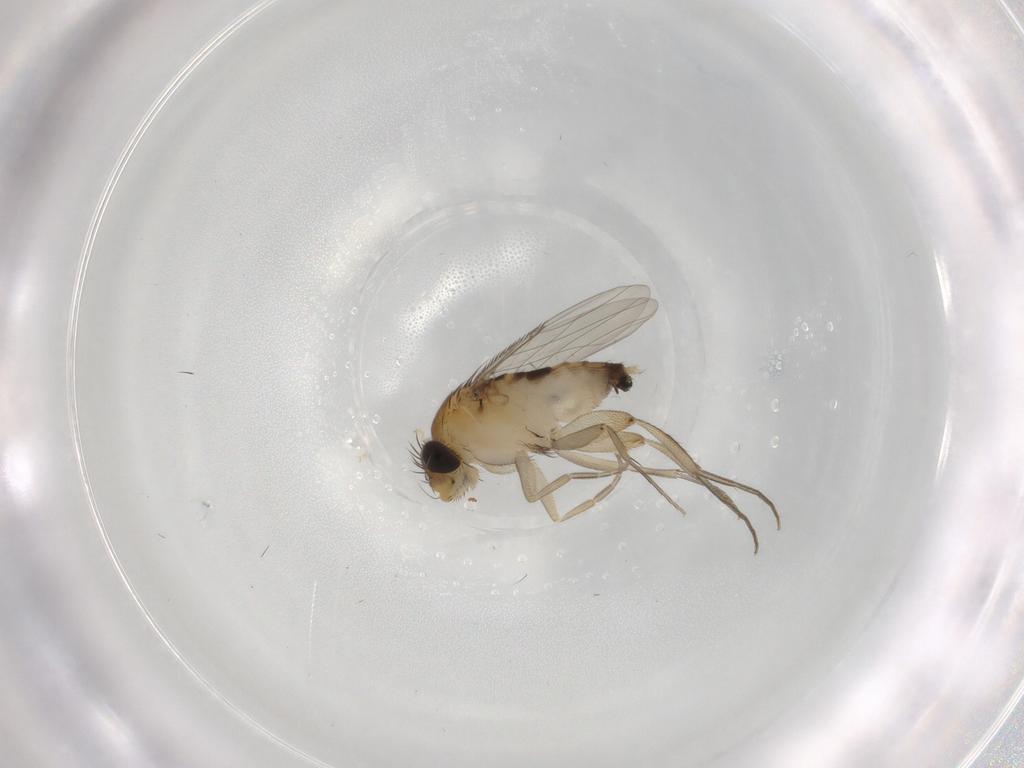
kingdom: Animalia
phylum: Arthropoda
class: Insecta
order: Diptera
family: Phoridae
